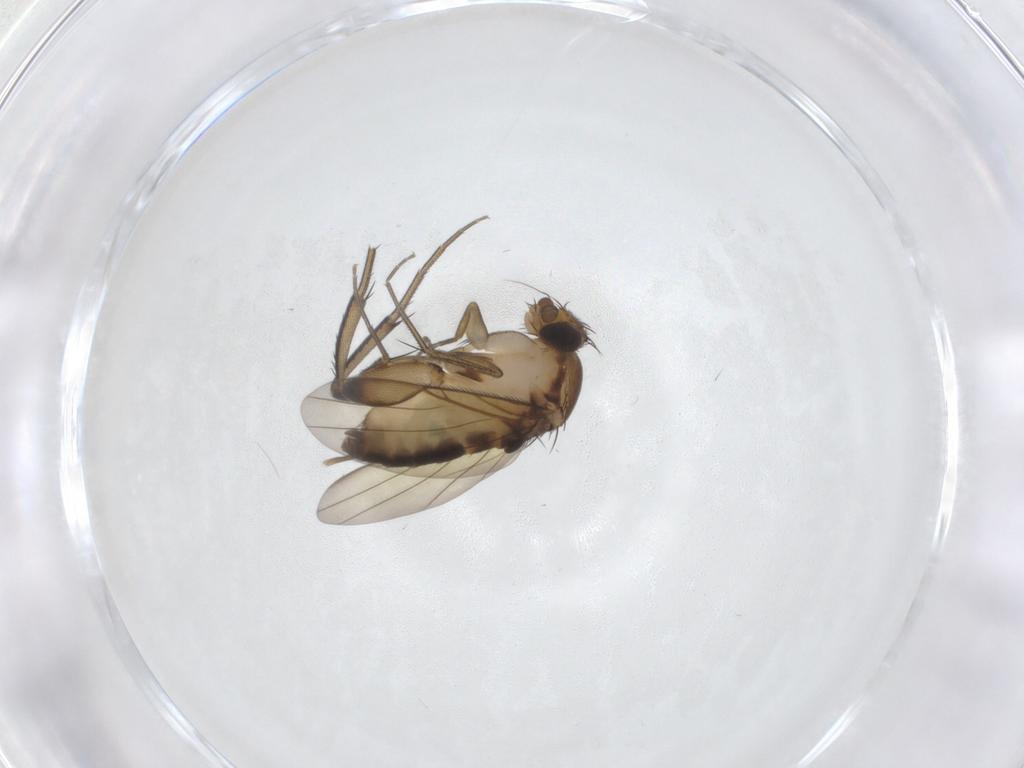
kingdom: Animalia
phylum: Arthropoda
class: Insecta
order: Diptera
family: Phoridae
